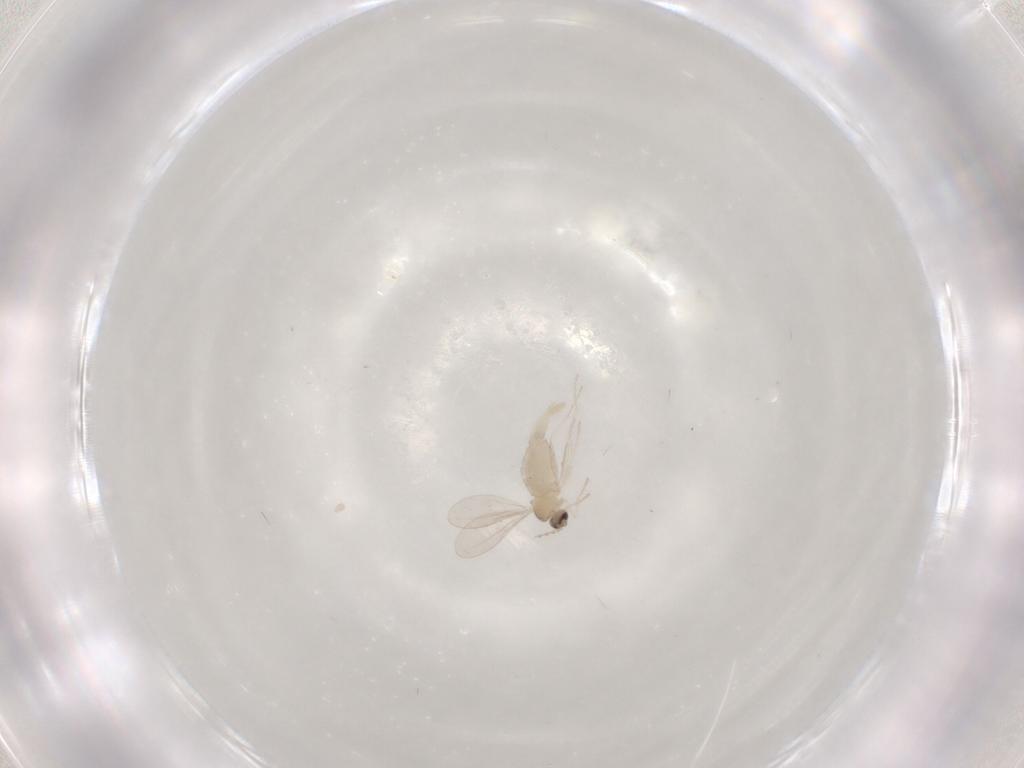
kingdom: Animalia
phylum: Arthropoda
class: Insecta
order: Diptera
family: Cecidomyiidae
